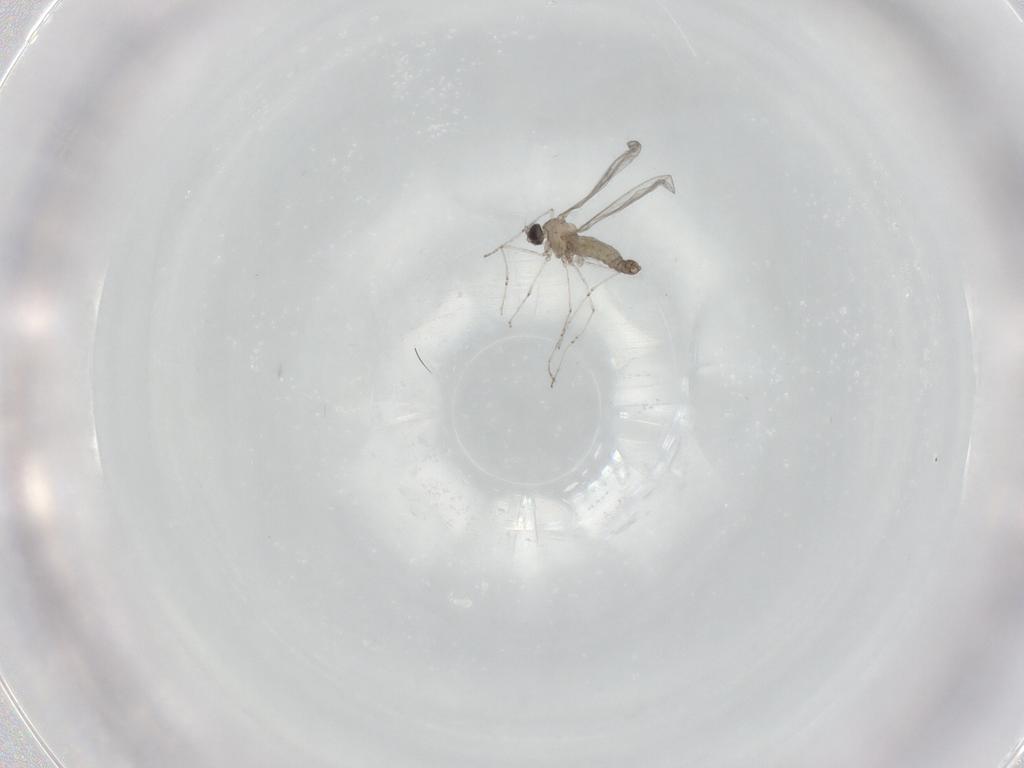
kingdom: Animalia
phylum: Arthropoda
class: Insecta
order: Diptera
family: Cecidomyiidae
